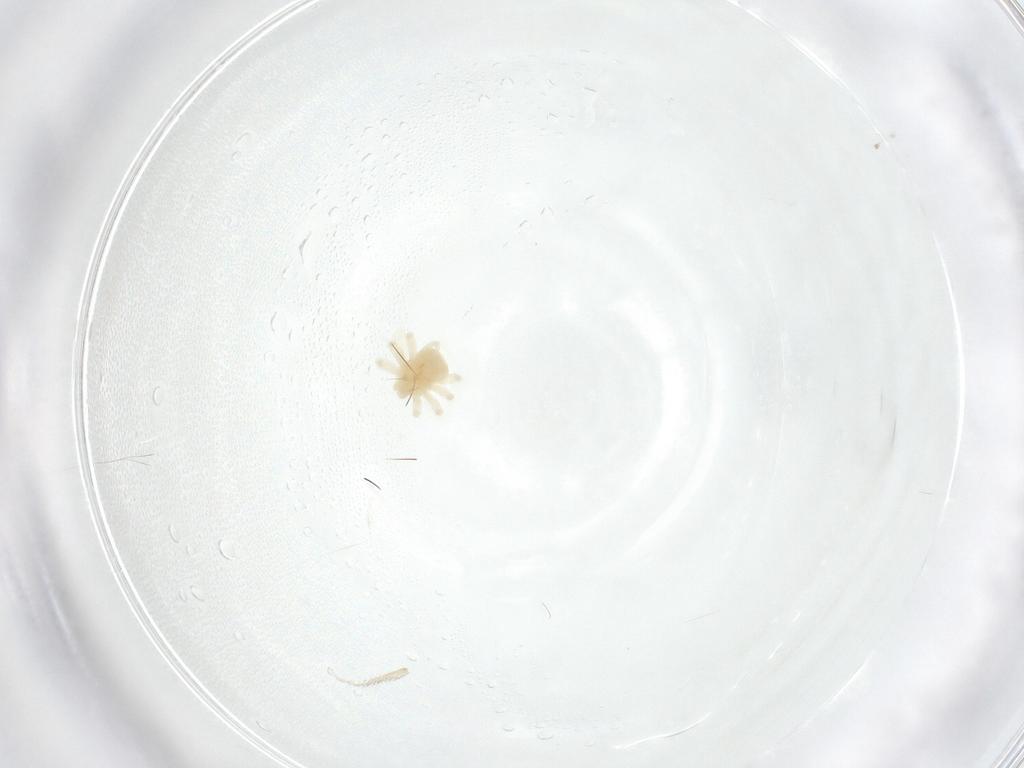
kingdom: Animalia
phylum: Arthropoda
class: Arachnida
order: Trombidiformes
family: Anystidae
